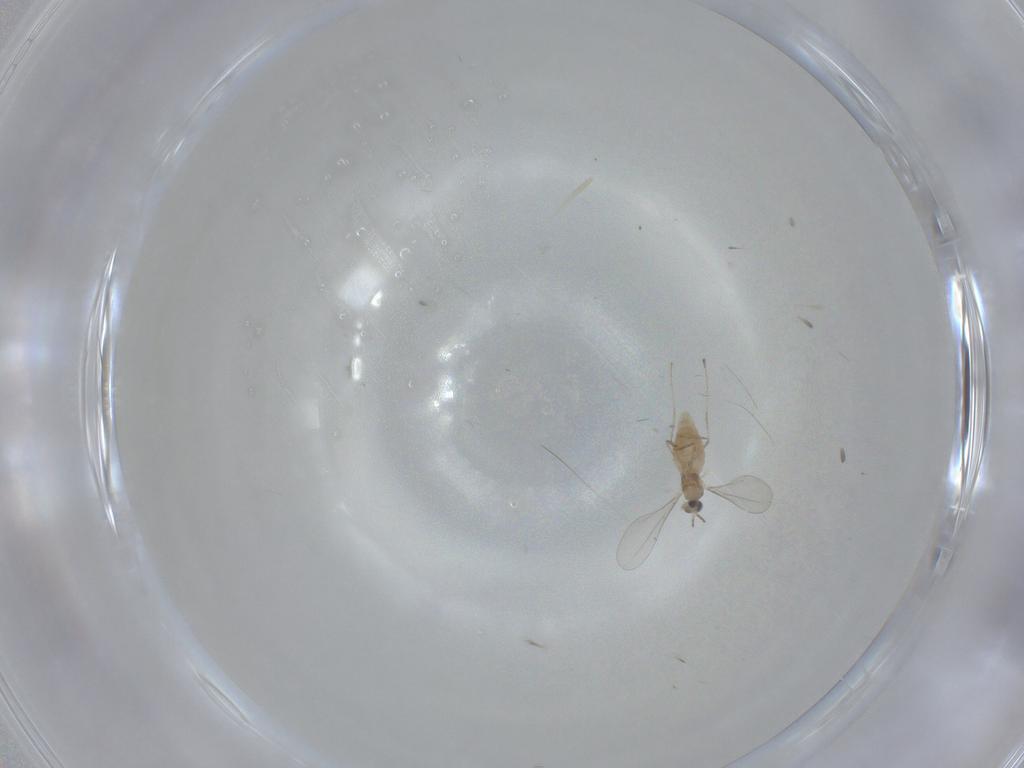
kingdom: Animalia
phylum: Arthropoda
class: Insecta
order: Diptera
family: Cecidomyiidae
